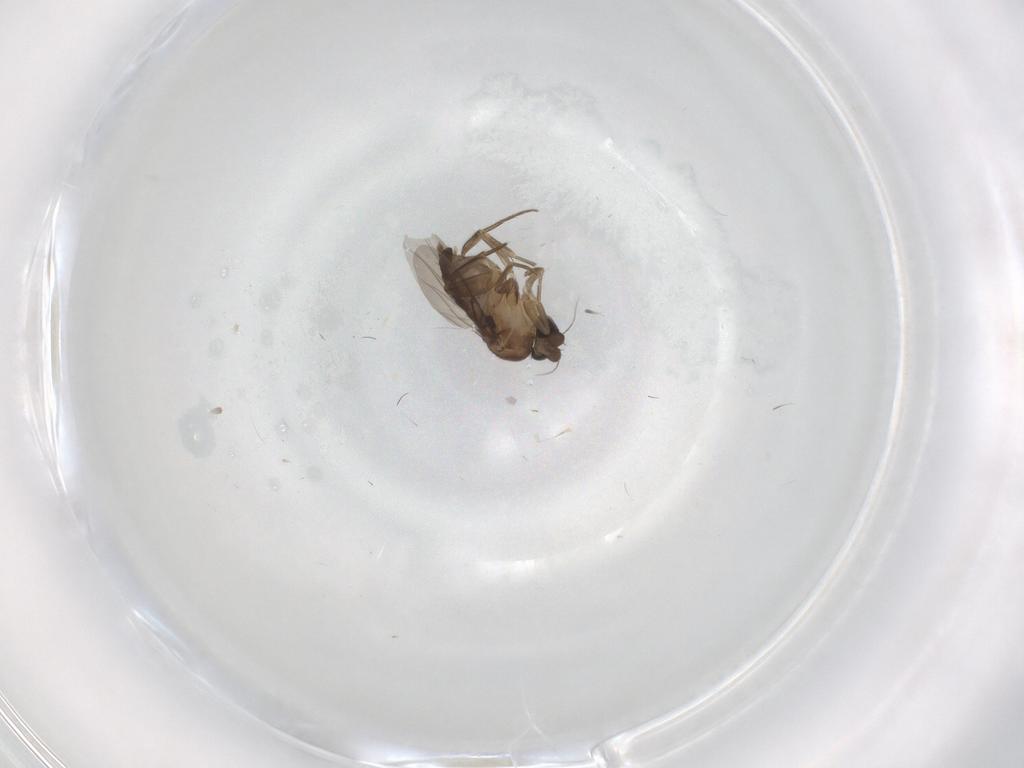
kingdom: Animalia
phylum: Arthropoda
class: Insecta
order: Diptera
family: Phoridae
